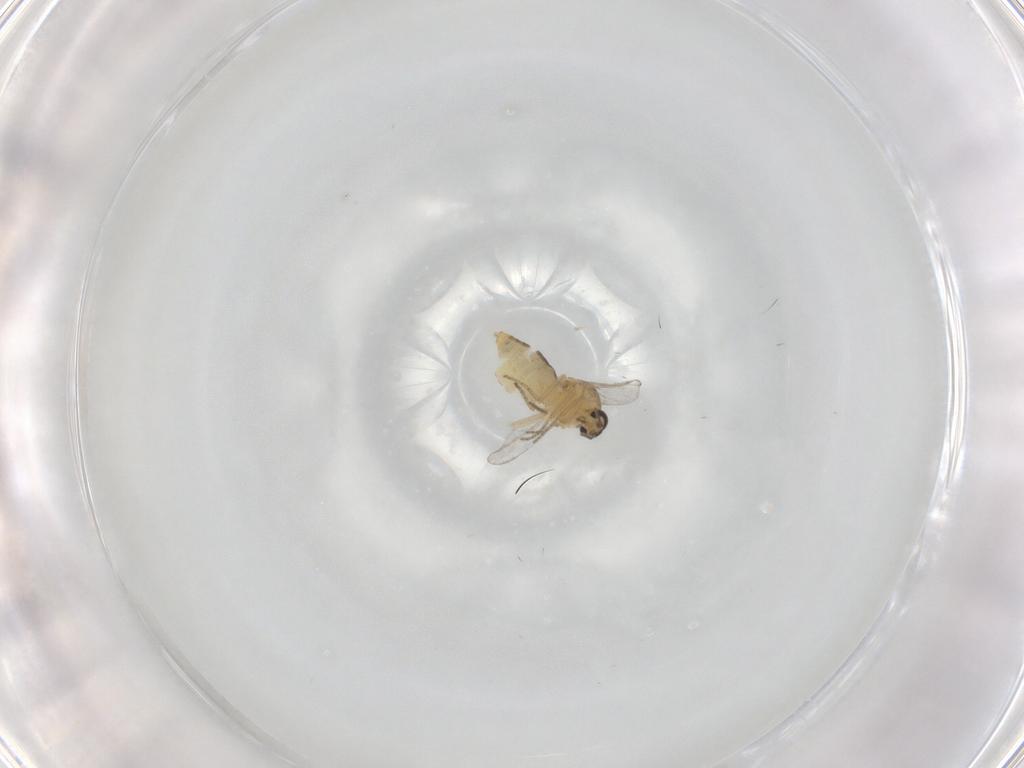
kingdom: Animalia
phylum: Arthropoda
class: Insecta
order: Diptera
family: Ceratopogonidae
